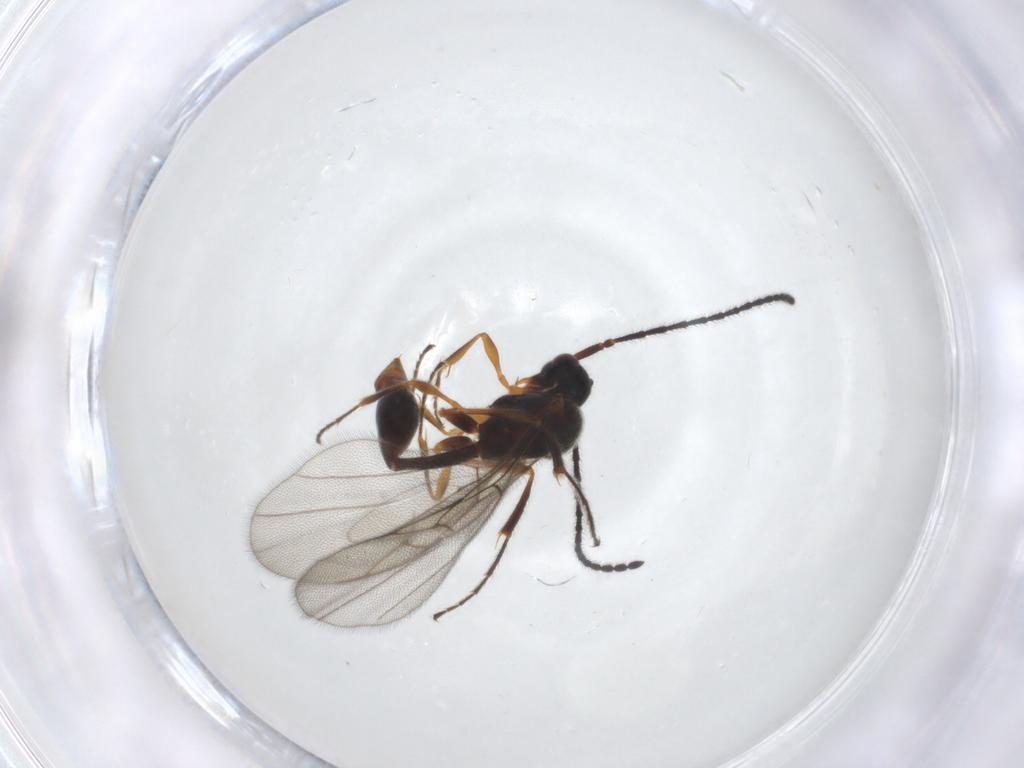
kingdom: Animalia
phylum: Arthropoda
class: Insecta
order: Hymenoptera
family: Diapriidae
